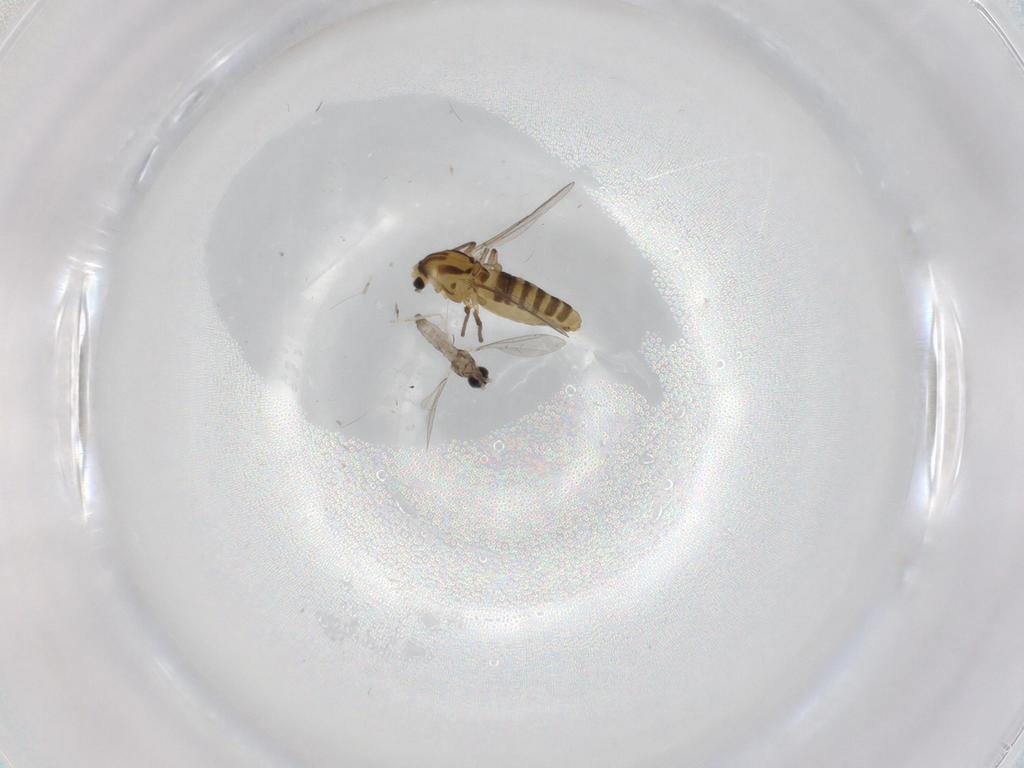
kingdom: Animalia
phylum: Arthropoda
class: Insecta
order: Diptera
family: Chironomidae
